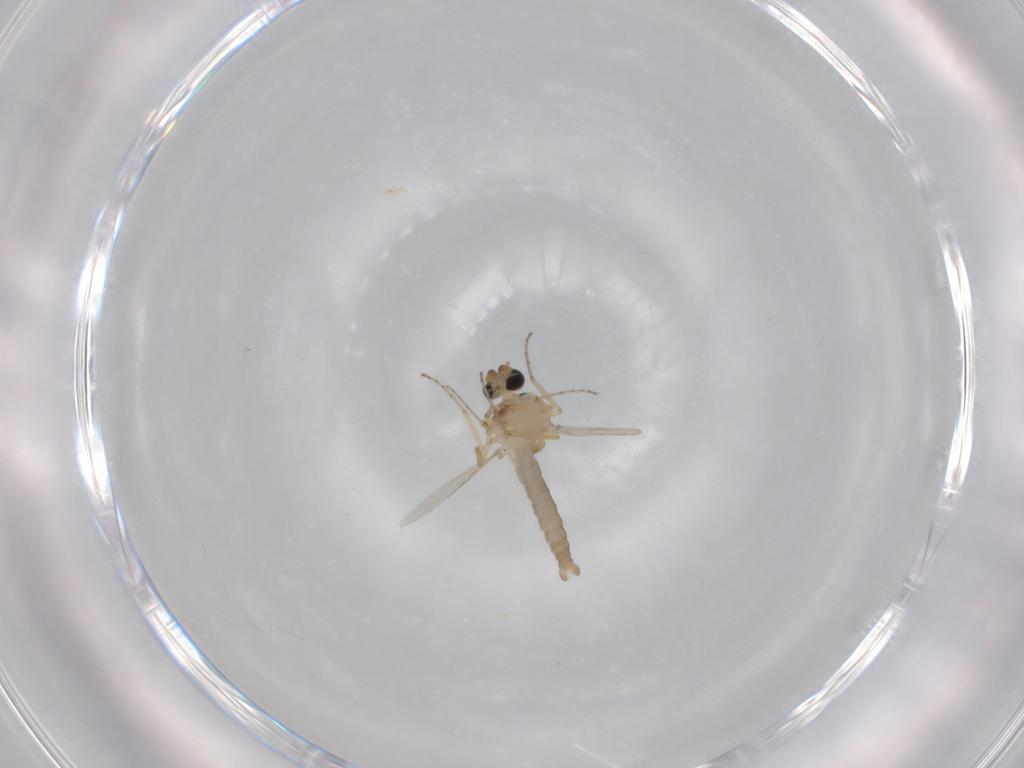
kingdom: Animalia
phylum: Arthropoda
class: Insecta
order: Diptera
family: Ceratopogonidae
